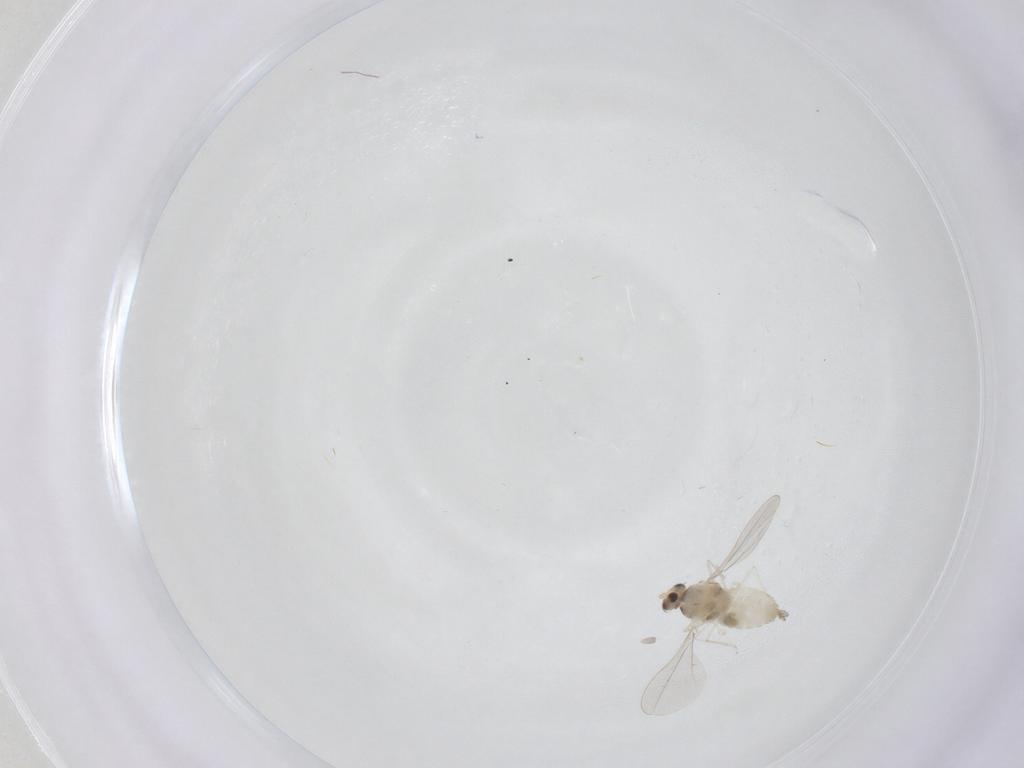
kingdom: Animalia
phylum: Arthropoda
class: Insecta
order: Diptera
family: Cecidomyiidae
